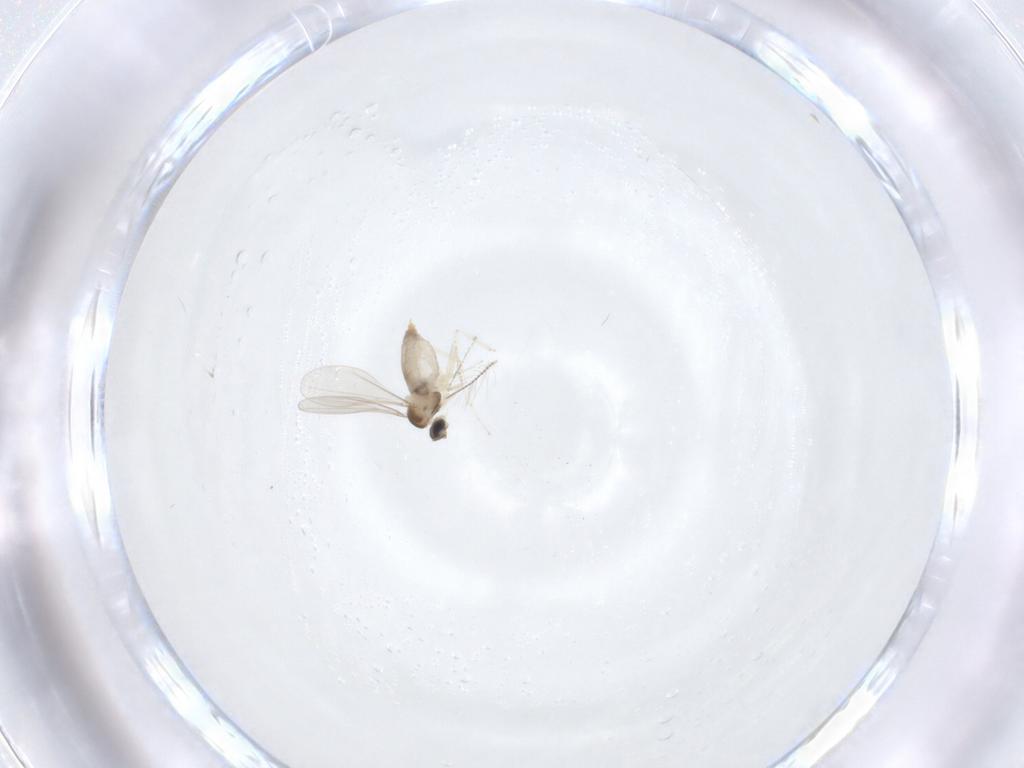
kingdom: Animalia
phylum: Arthropoda
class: Insecta
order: Diptera
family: Chironomidae
